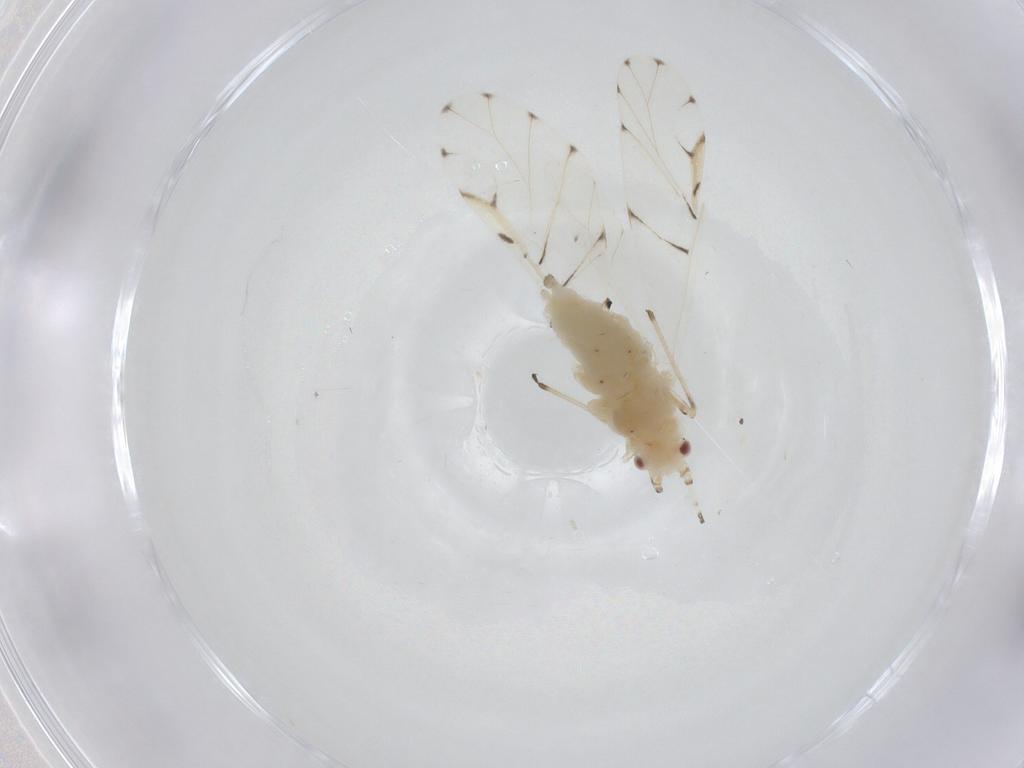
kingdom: Animalia
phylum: Arthropoda
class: Insecta
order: Hemiptera
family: Aphididae
